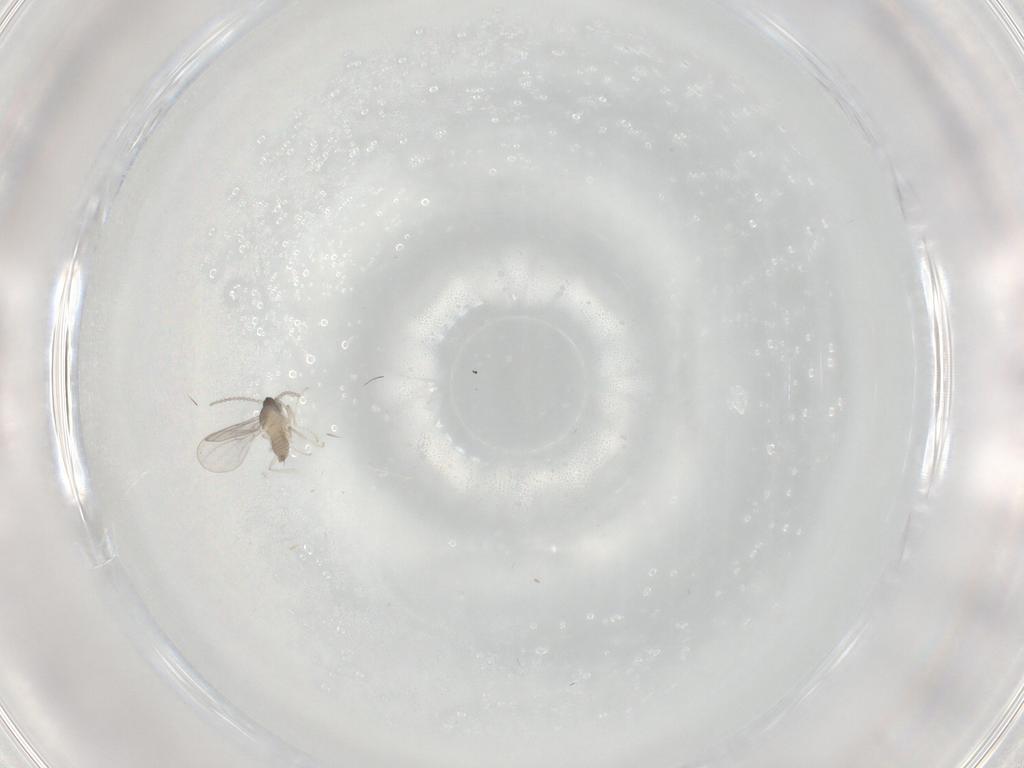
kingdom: Animalia
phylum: Arthropoda
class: Insecta
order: Diptera
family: Cecidomyiidae
